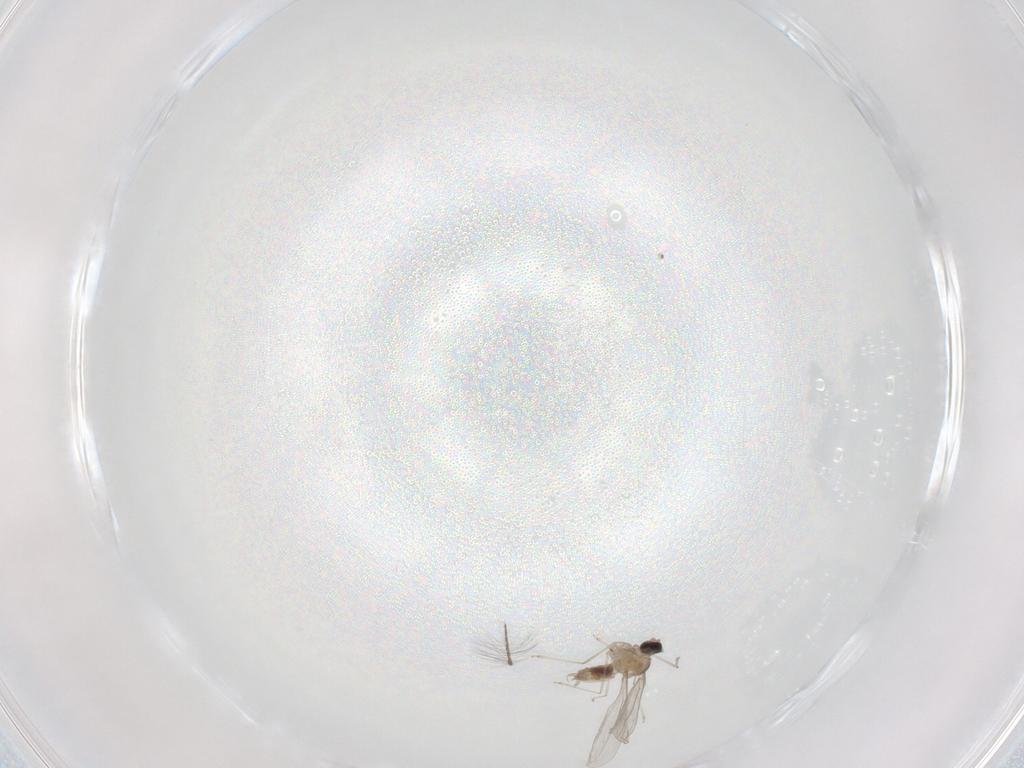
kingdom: Animalia
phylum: Arthropoda
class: Insecta
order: Diptera
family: Cecidomyiidae
